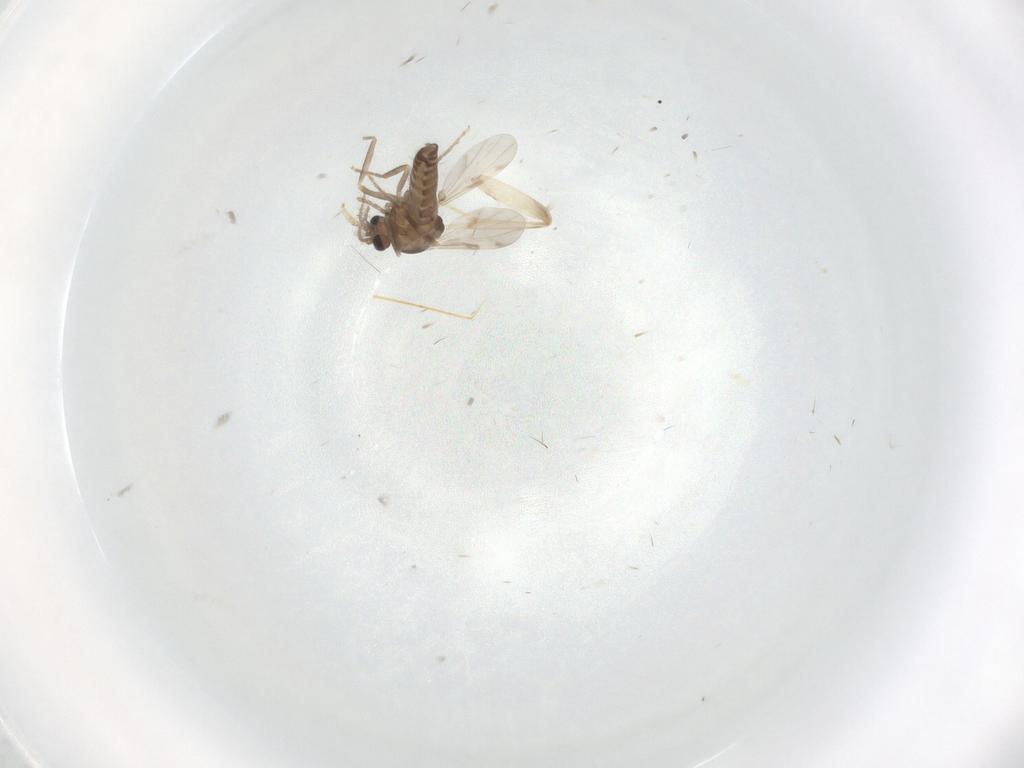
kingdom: Animalia
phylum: Arthropoda
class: Insecta
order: Diptera
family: Ceratopogonidae
